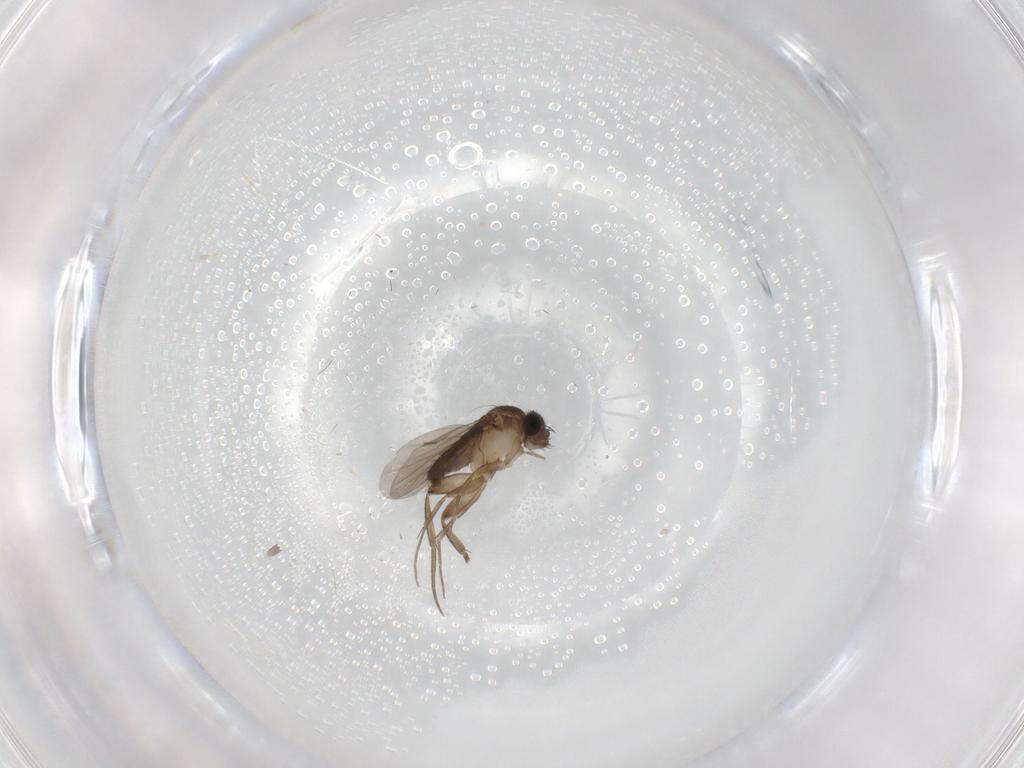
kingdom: Animalia
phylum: Arthropoda
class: Insecta
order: Diptera
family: Phoridae
